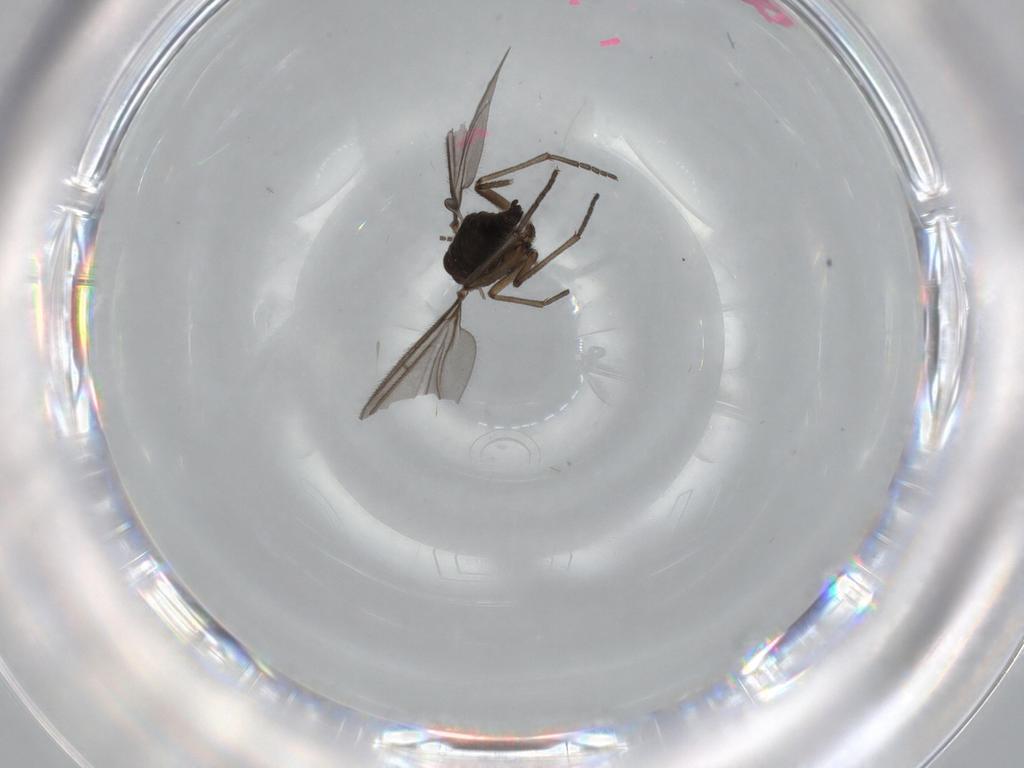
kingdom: Animalia
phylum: Arthropoda
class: Insecta
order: Diptera
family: Sciaridae
